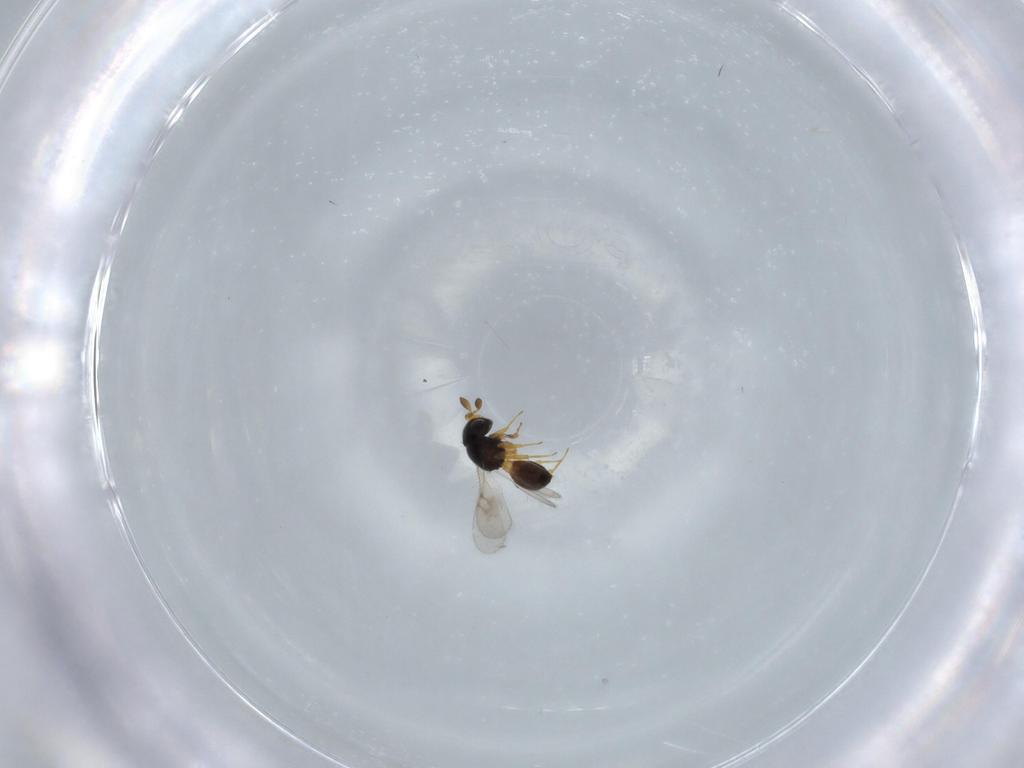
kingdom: Animalia
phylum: Arthropoda
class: Insecta
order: Hymenoptera
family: Scelionidae
